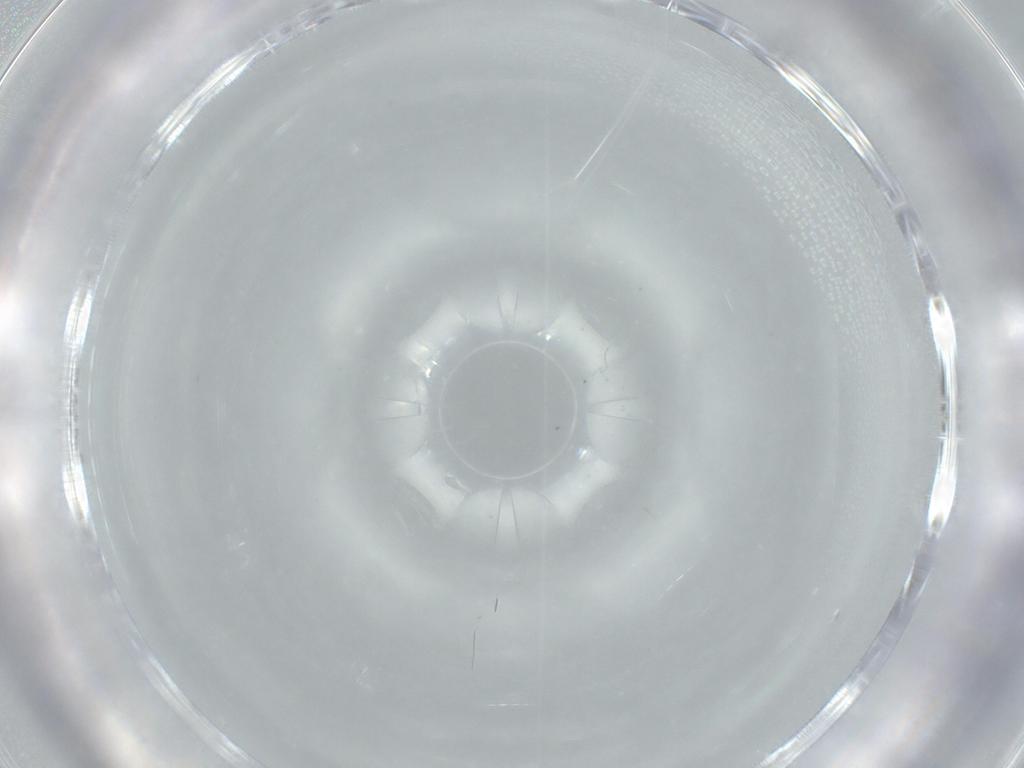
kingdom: Animalia
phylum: Arthropoda
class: Insecta
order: Diptera
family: Sciaridae
